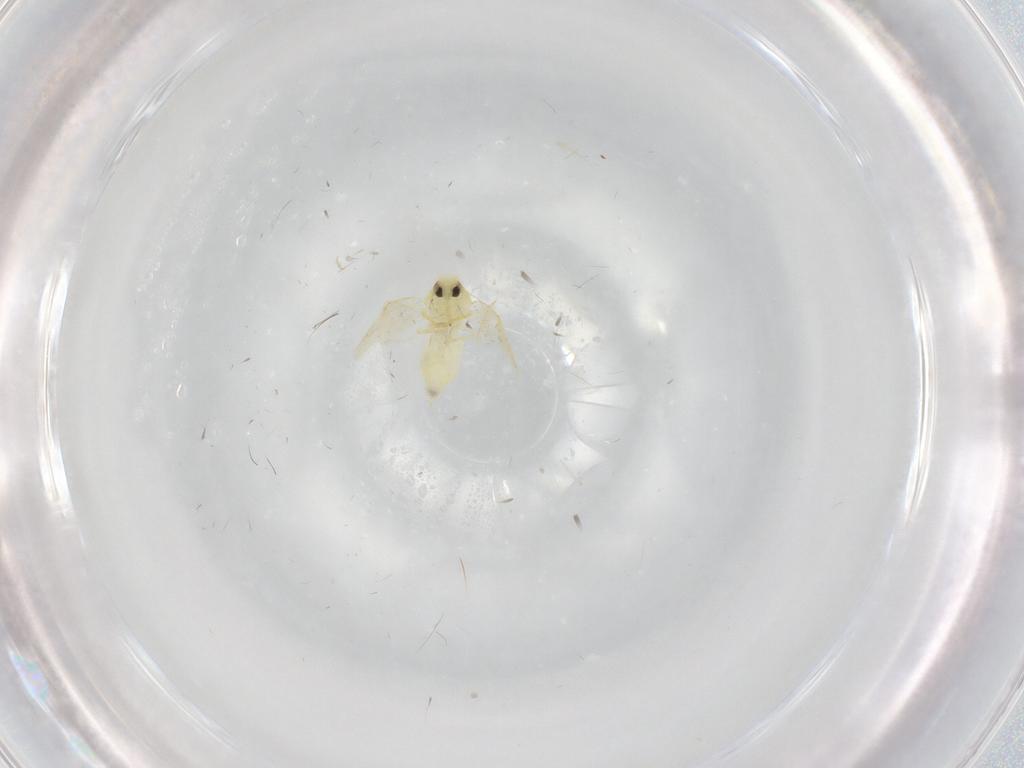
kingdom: Animalia
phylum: Arthropoda
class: Insecta
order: Hemiptera
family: Aleyrodidae
